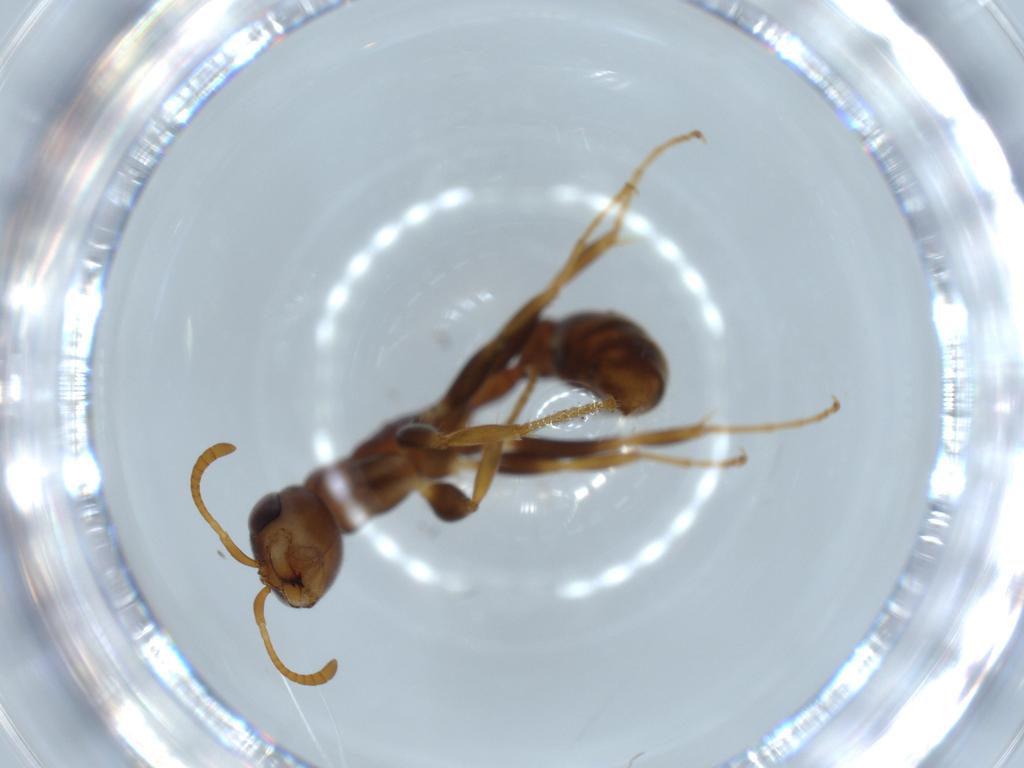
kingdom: Animalia
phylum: Arthropoda
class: Insecta
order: Hymenoptera
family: Formicidae
